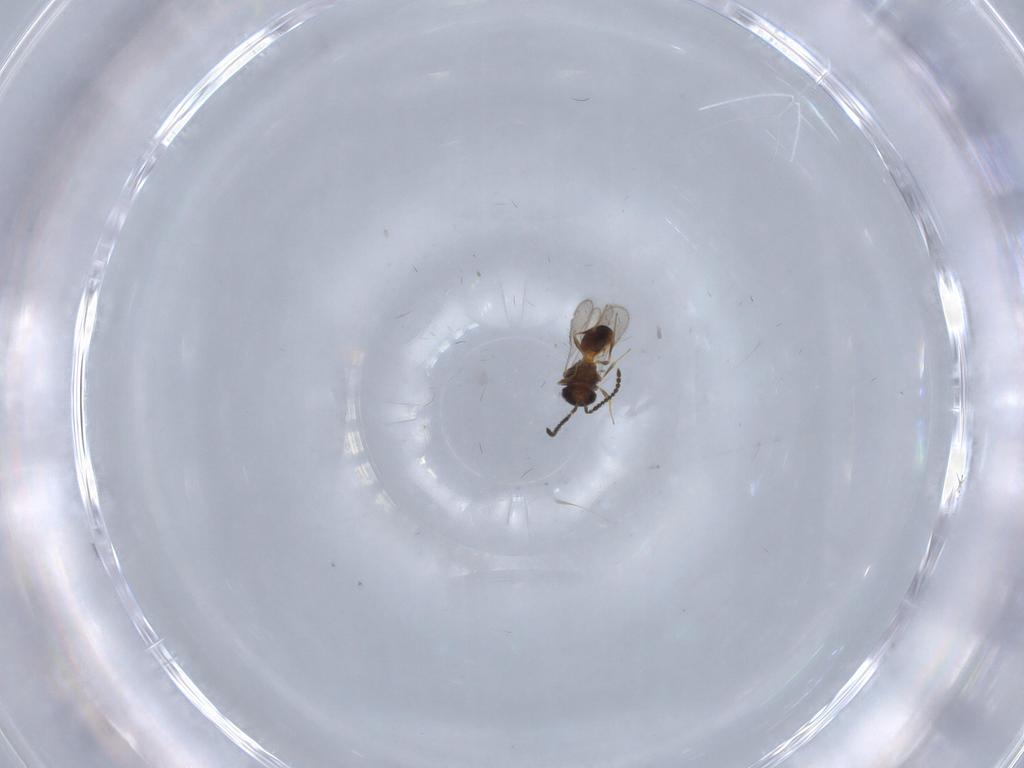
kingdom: Animalia
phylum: Arthropoda
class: Insecta
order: Hymenoptera
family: Scelionidae
